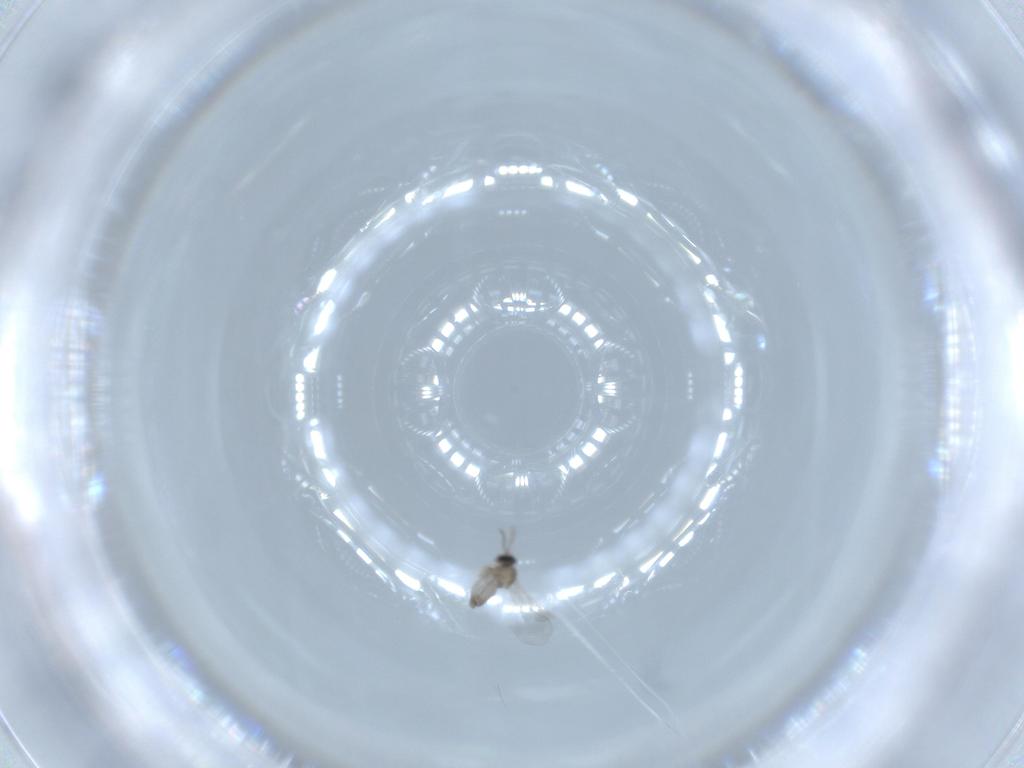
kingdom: Animalia
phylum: Arthropoda
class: Insecta
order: Diptera
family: Cecidomyiidae
